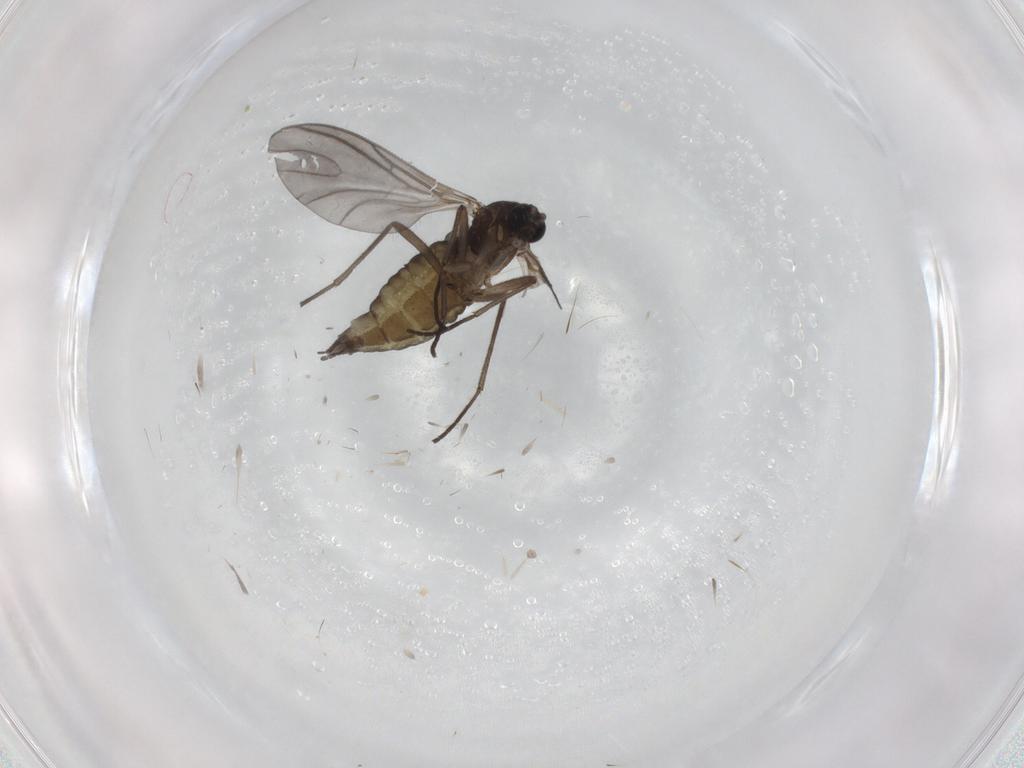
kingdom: Animalia
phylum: Arthropoda
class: Insecta
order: Diptera
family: Sciaridae
